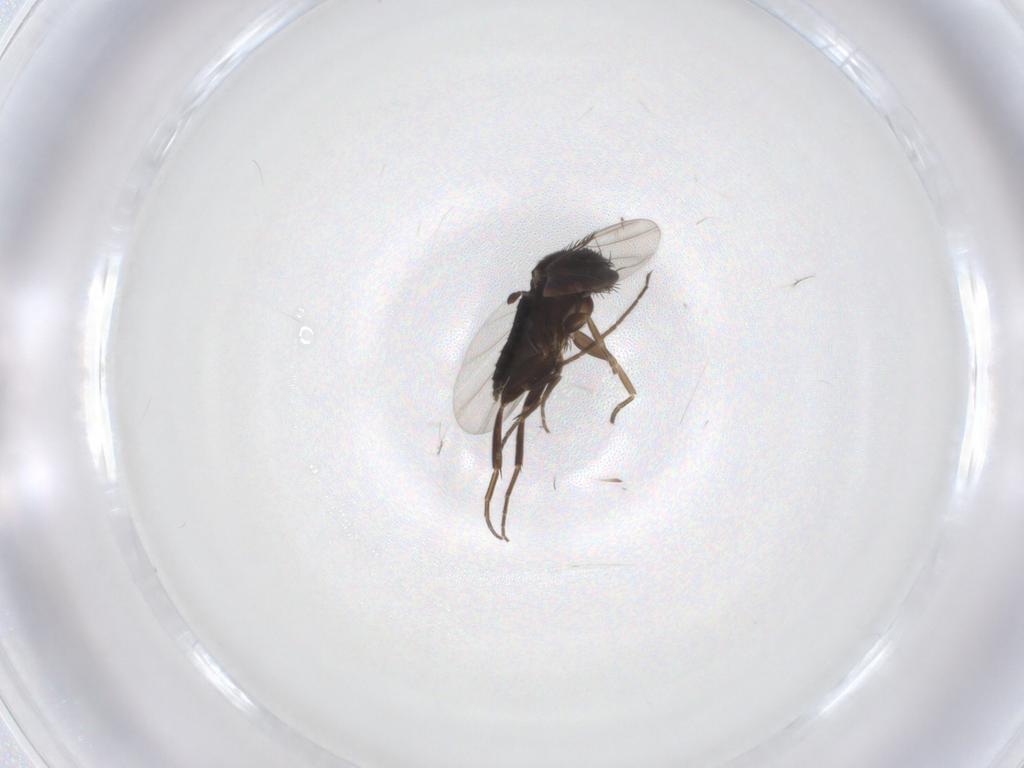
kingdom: Animalia
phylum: Arthropoda
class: Insecta
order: Diptera
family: Phoridae
